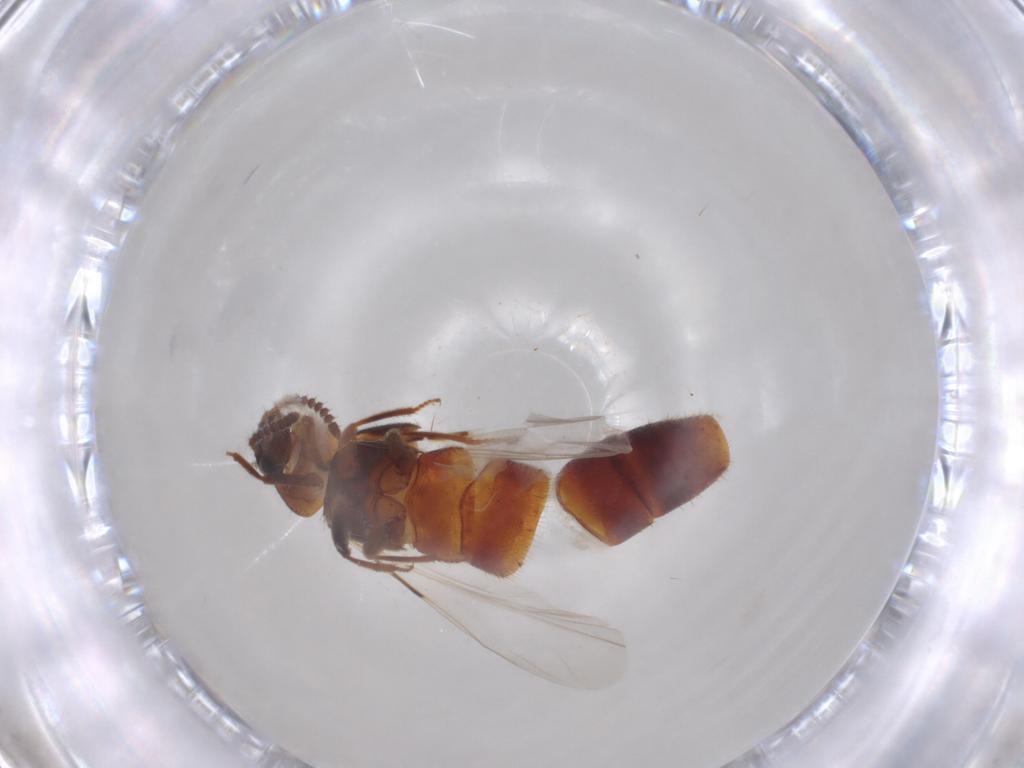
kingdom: Animalia
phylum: Arthropoda
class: Insecta
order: Coleoptera
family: Staphylinidae
